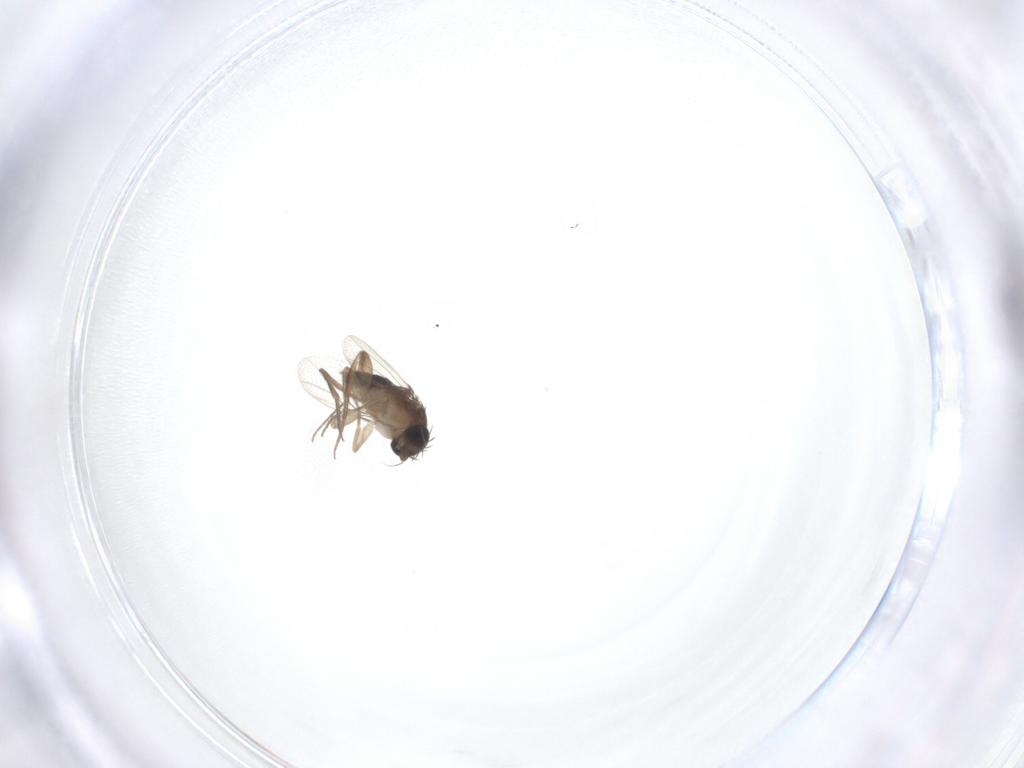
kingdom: Animalia
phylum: Arthropoda
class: Insecta
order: Diptera
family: Phoridae
